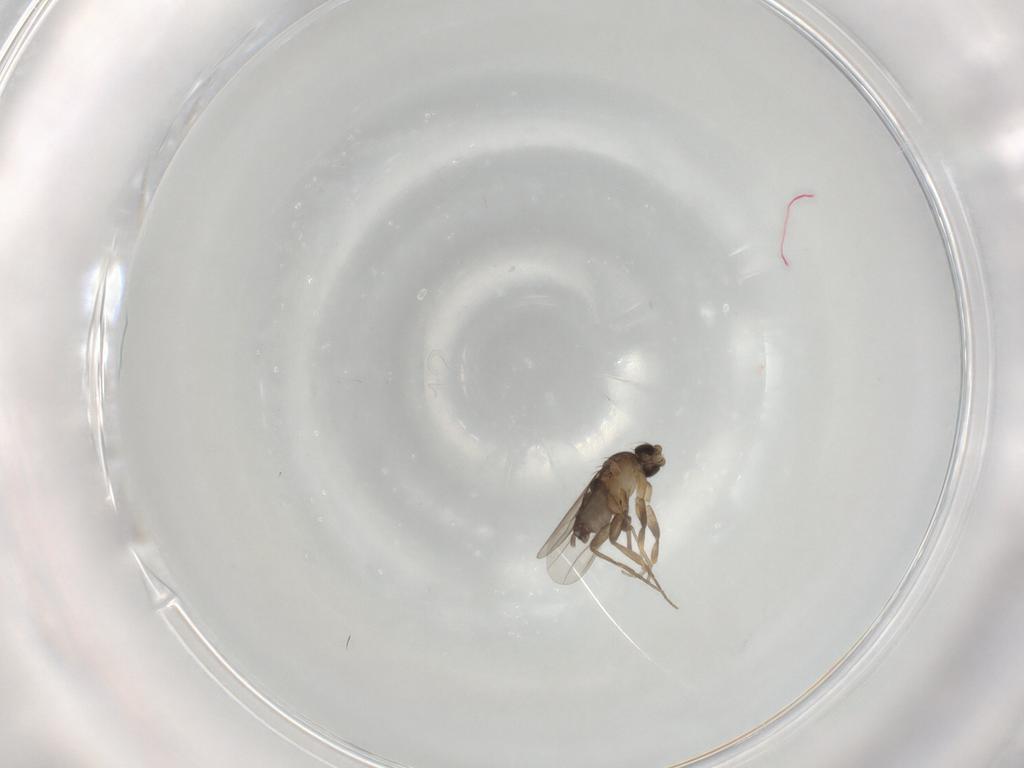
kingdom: Animalia
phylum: Arthropoda
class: Insecta
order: Diptera
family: Phoridae
